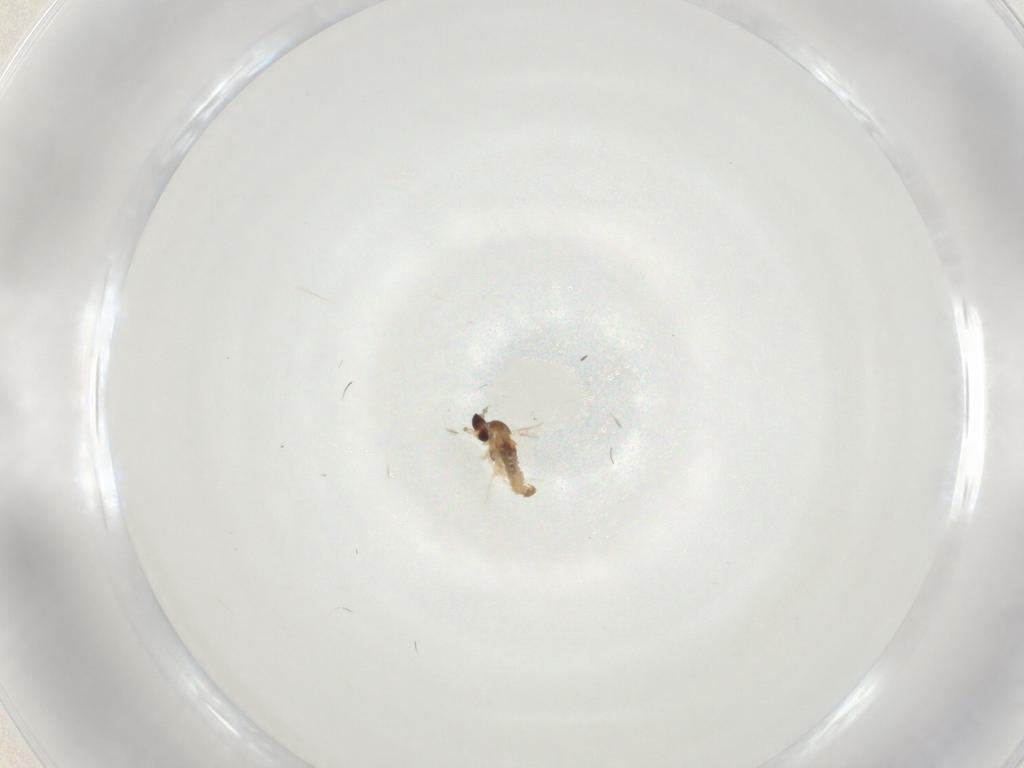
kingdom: Animalia
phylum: Arthropoda
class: Insecta
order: Diptera
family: Cecidomyiidae
